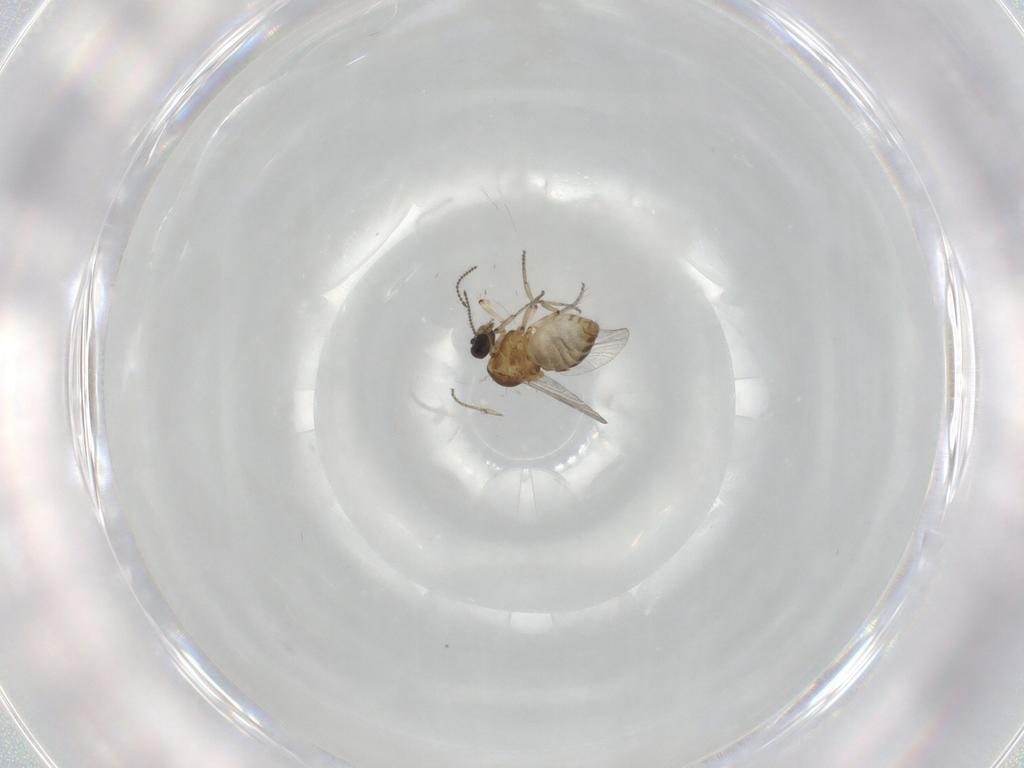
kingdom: Animalia
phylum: Arthropoda
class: Insecta
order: Diptera
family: Ceratopogonidae
